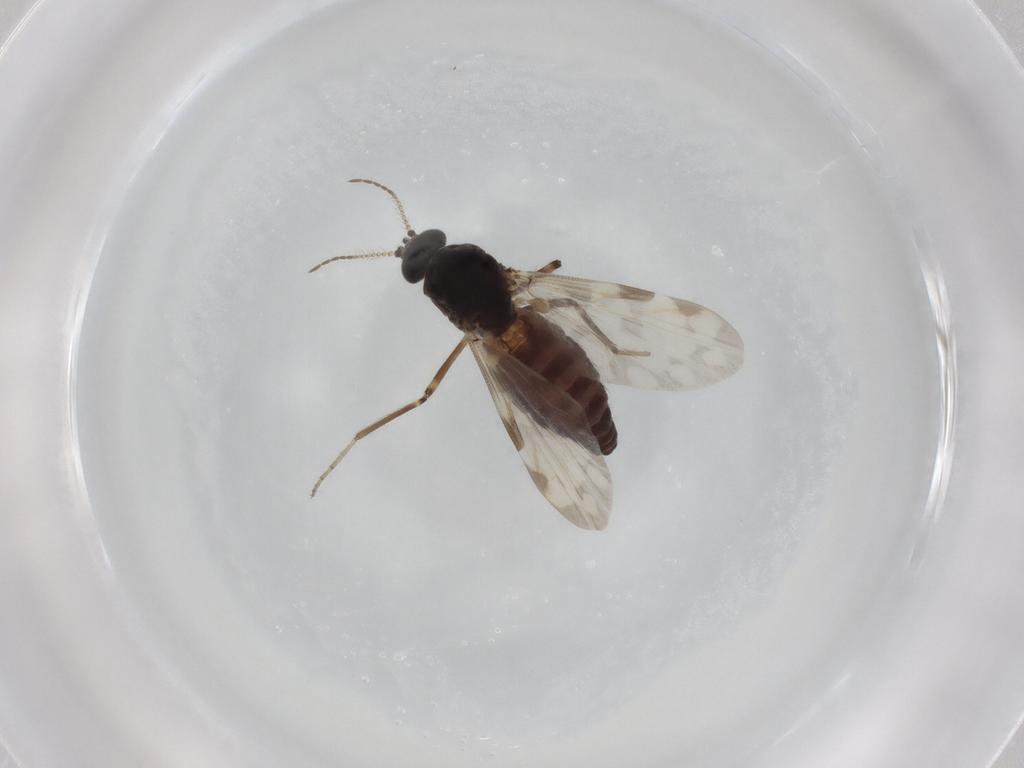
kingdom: Animalia
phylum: Arthropoda
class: Insecta
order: Diptera
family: Ceratopogonidae
